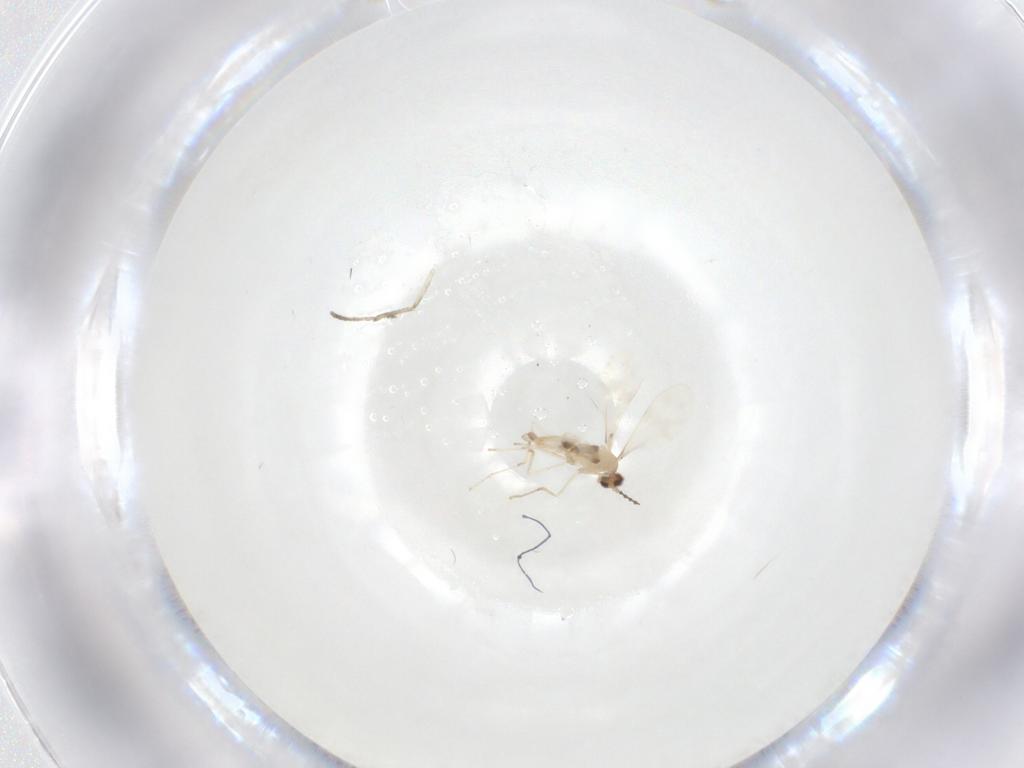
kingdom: Animalia
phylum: Arthropoda
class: Insecta
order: Diptera
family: Cecidomyiidae
